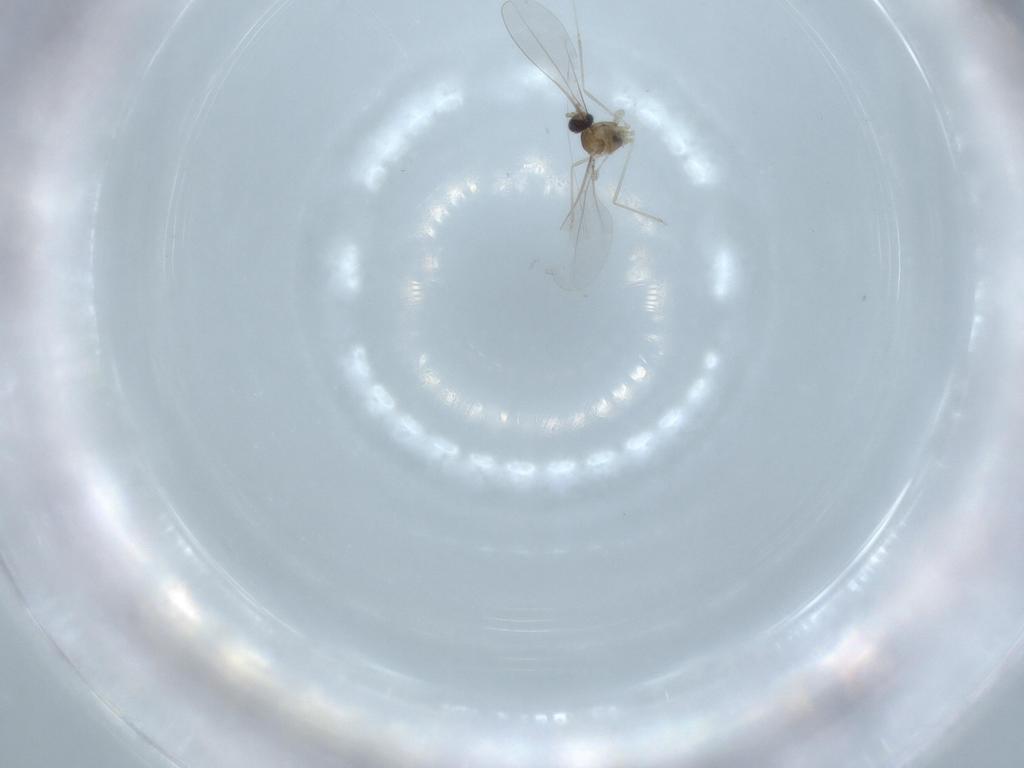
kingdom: Animalia
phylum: Arthropoda
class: Insecta
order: Diptera
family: Cecidomyiidae
